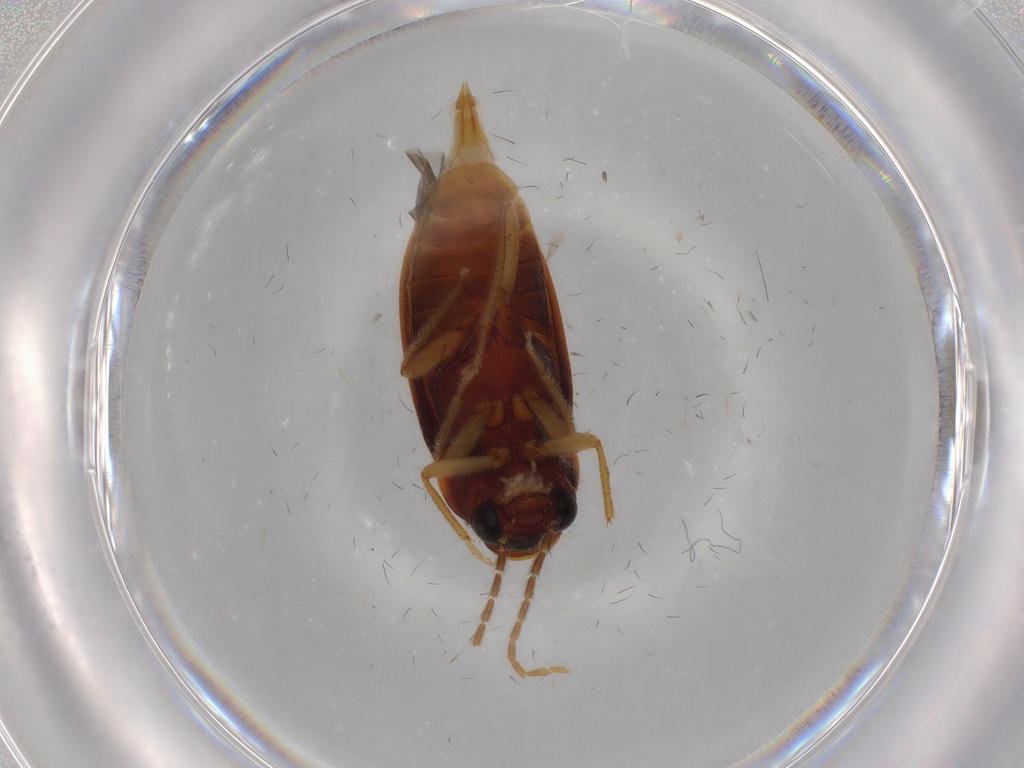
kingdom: Animalia
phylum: Arthropoda
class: Insecta
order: Coleoptera
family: Ptilodactylidae
